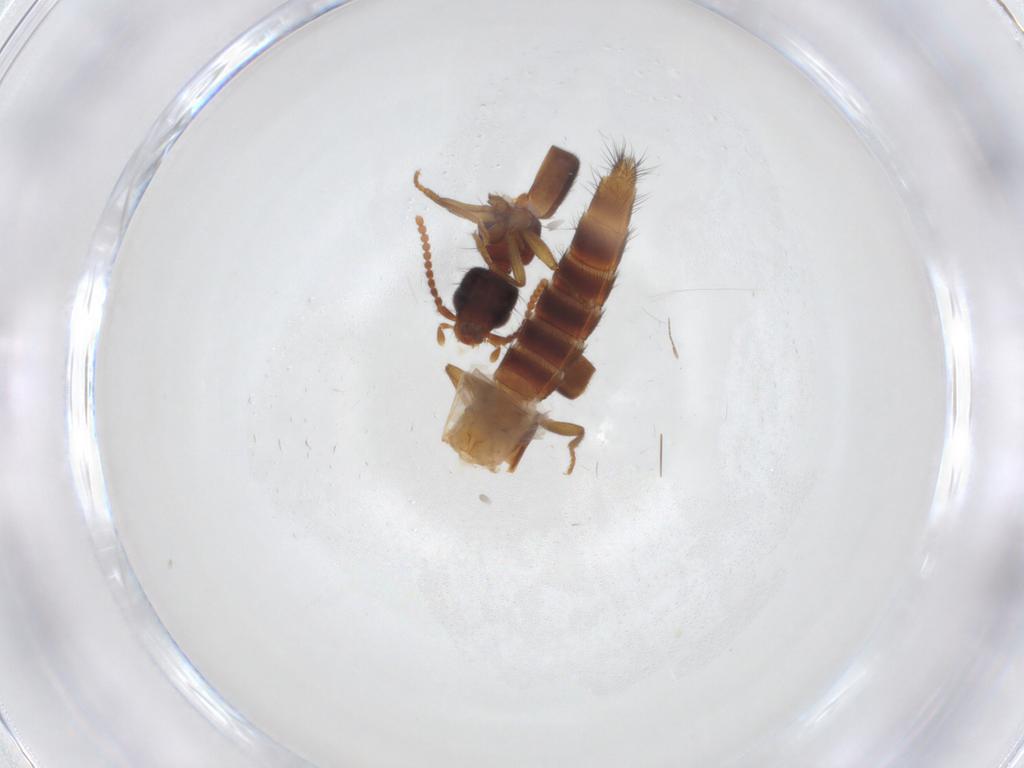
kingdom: Animalia
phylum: Arthropoda
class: Insecta
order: Coleoptera
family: Staphylinidae
